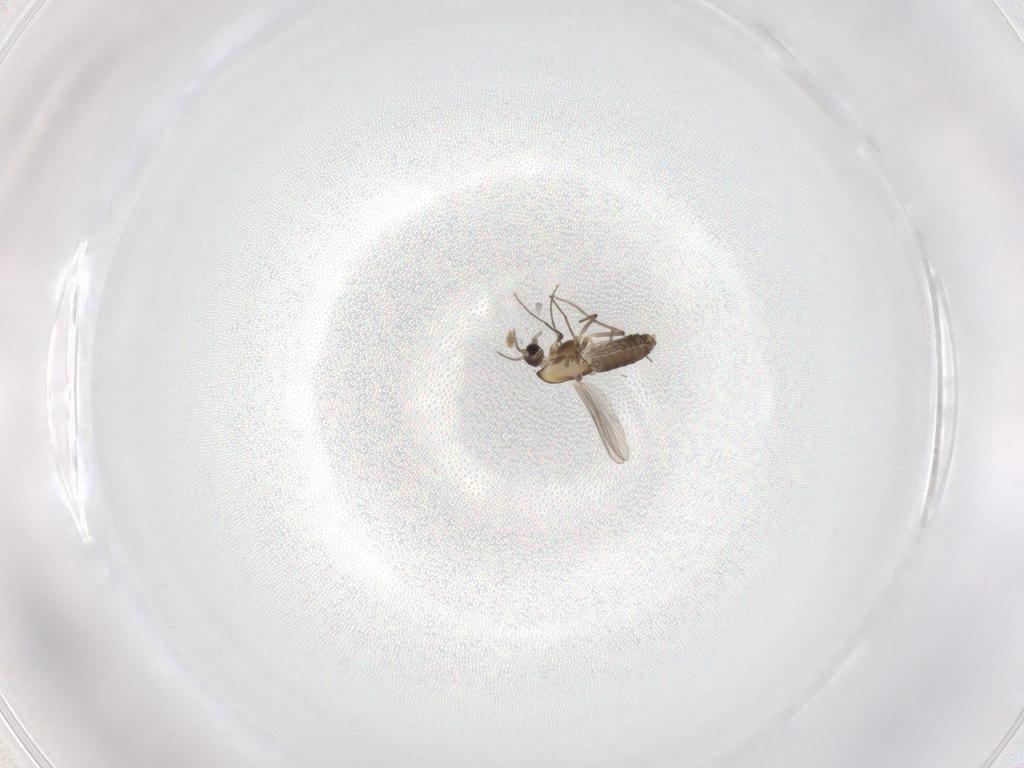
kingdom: Animalia
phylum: Arthropoda
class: Insecta
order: Diptera
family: Chironomidae
